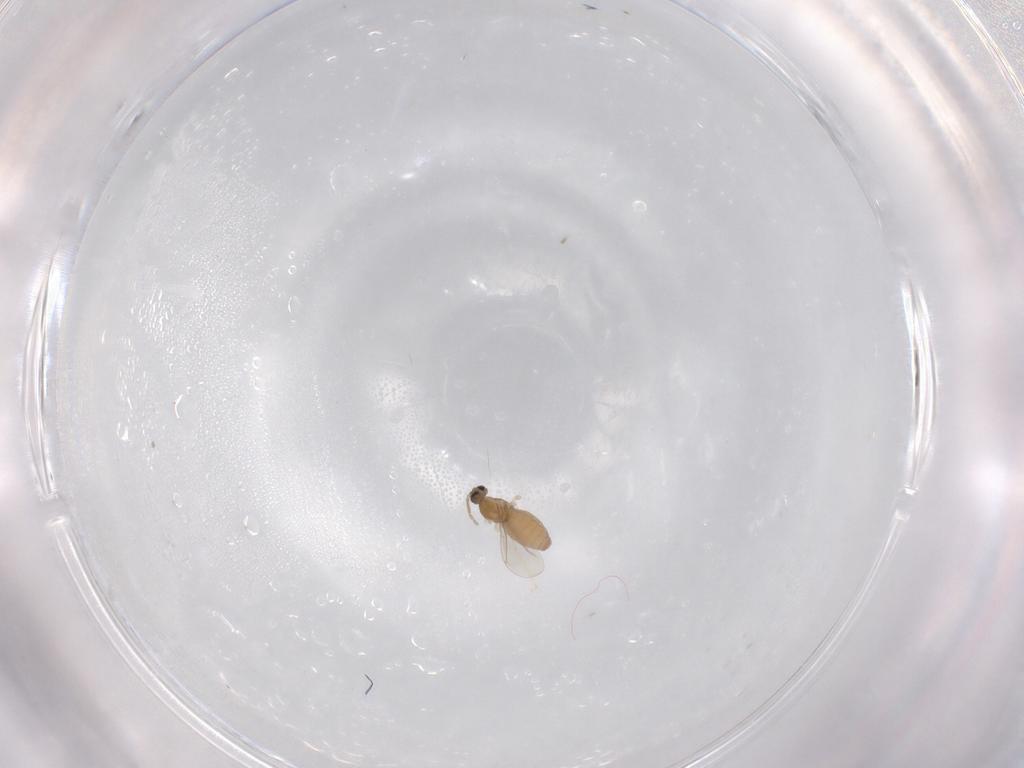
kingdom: Animalia
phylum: Arthropoda
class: Insecta
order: Diptera
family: Cecidomyiidae
